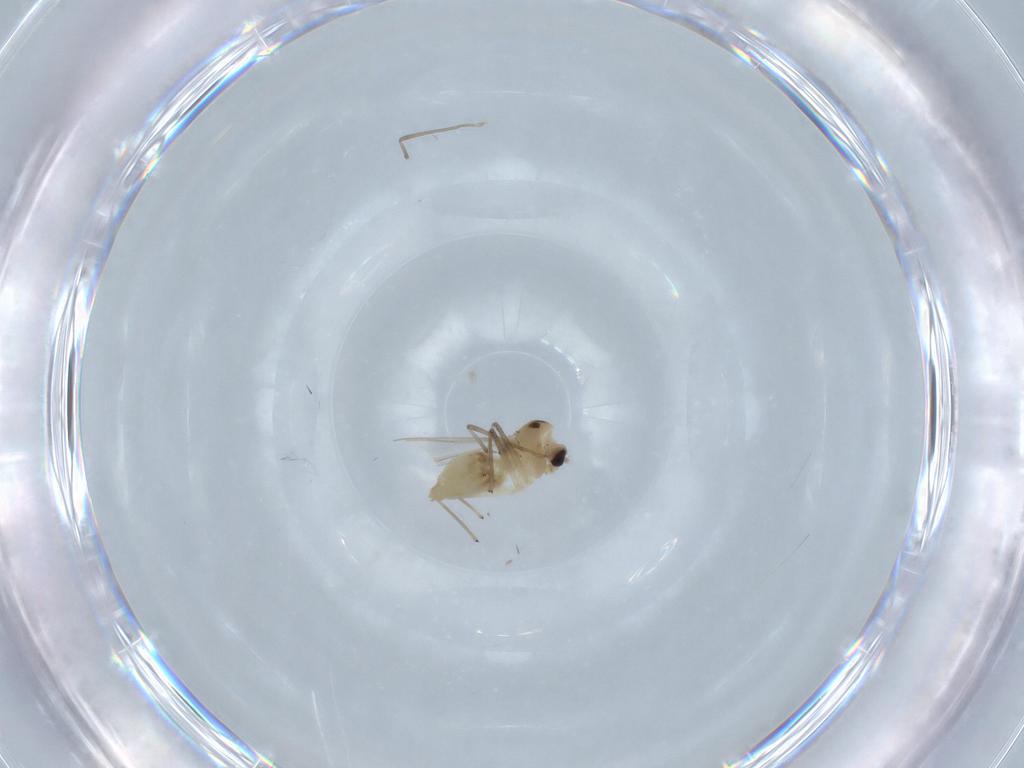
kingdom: Animalia
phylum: Arthropoda
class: Insecta
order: Diptera
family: Chironomidae
